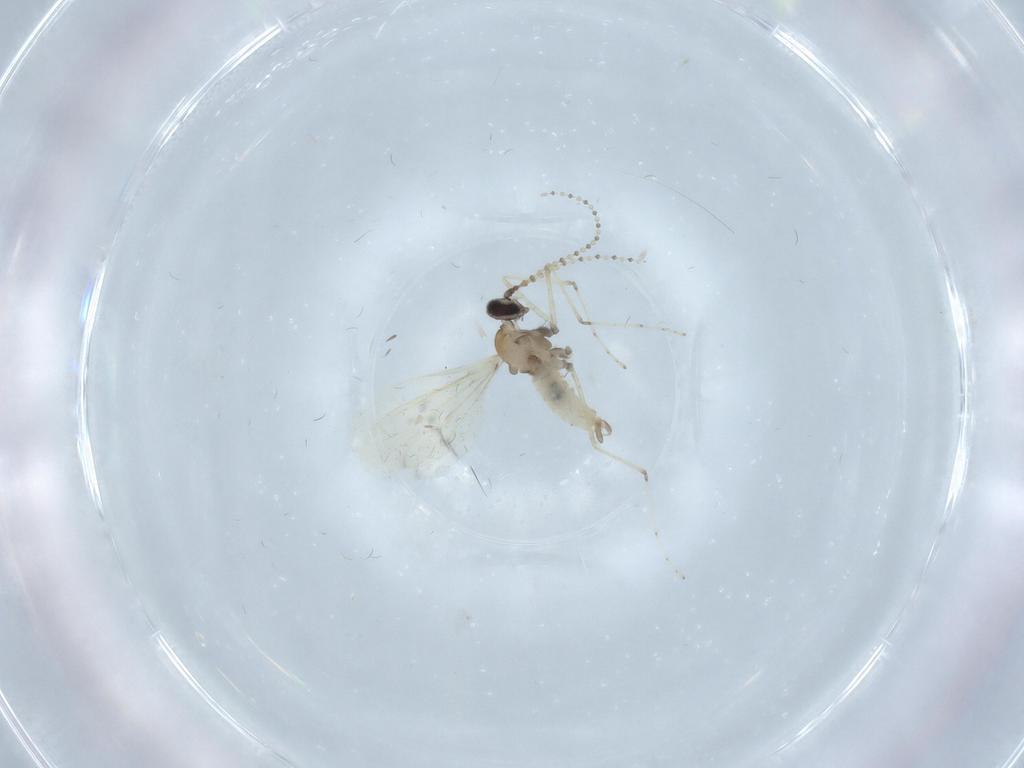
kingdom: Animalia
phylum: Arthropoda
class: Insecta
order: Diptera
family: Cecidomyiidae
